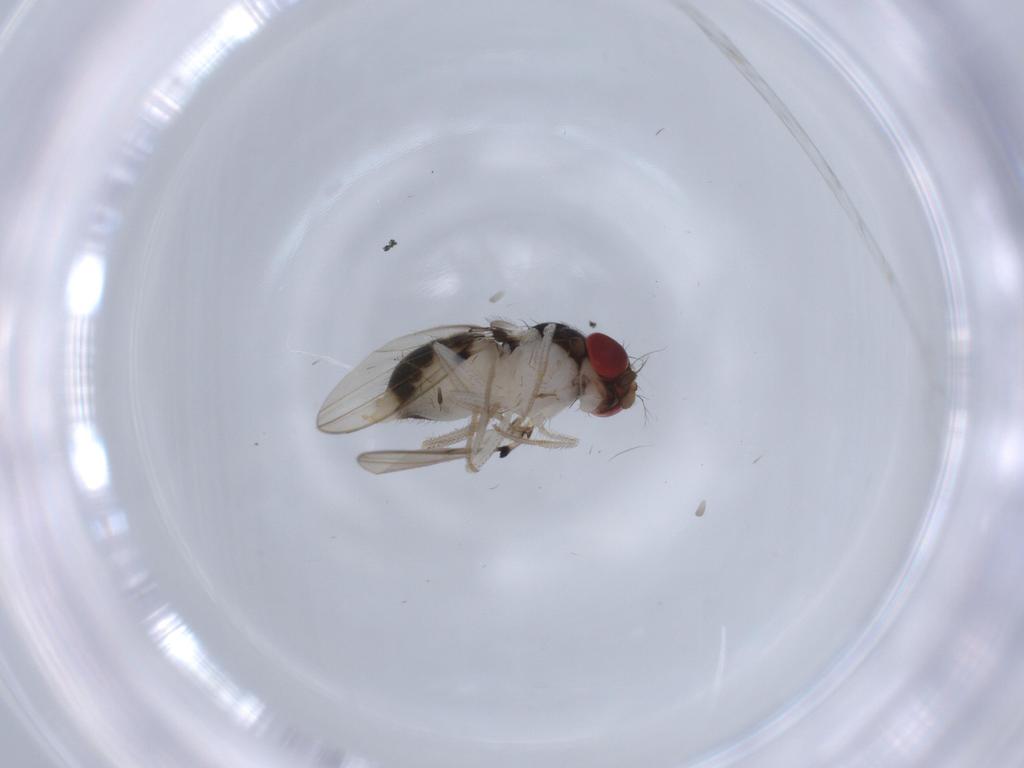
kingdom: Animalia
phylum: Arthropoda
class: Insecta
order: Diptera
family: Drosophilidae
